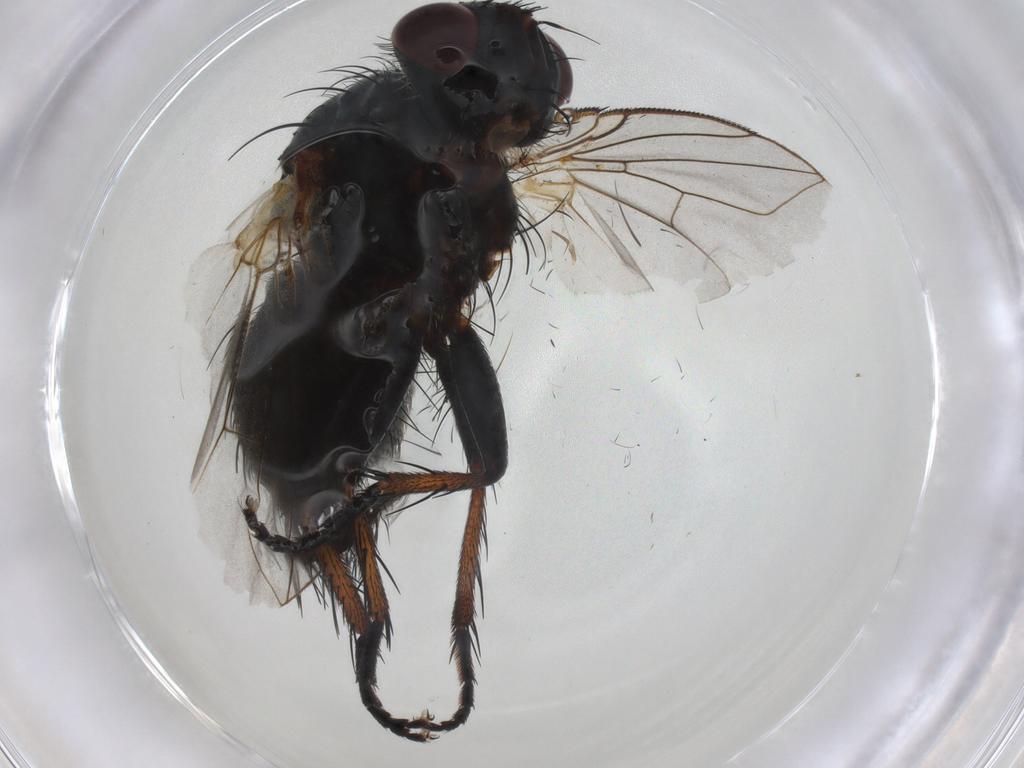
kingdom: Animalia
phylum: Arthropoda
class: Insecta
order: Diptera
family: Tachinidae
